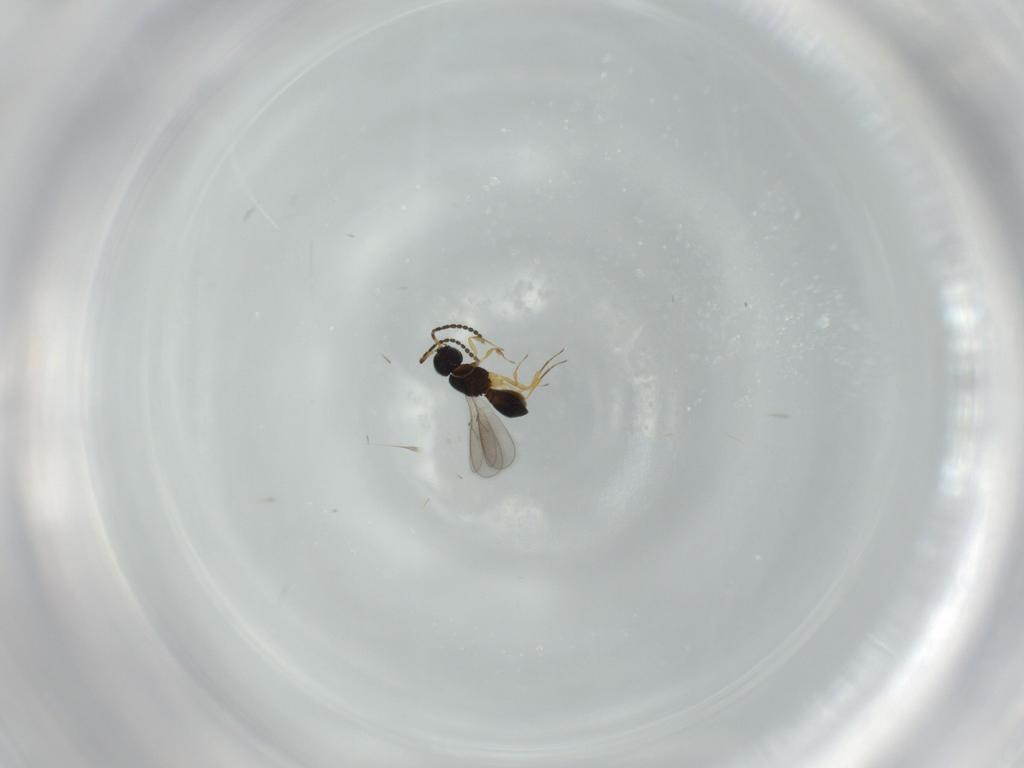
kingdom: Animalia
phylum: Arthropoda
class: Insecta
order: Hymenoptera
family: Scelionidae
